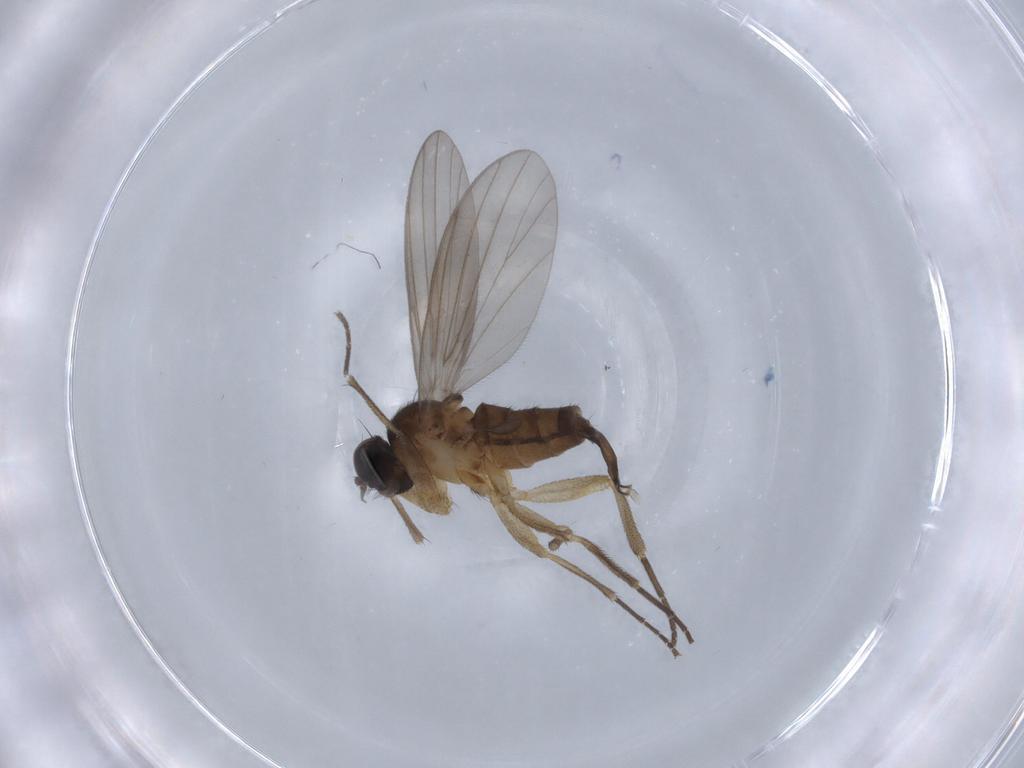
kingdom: Animalia
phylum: Arthropoda
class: Insecta
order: Diptera
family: Dolichopodidae
